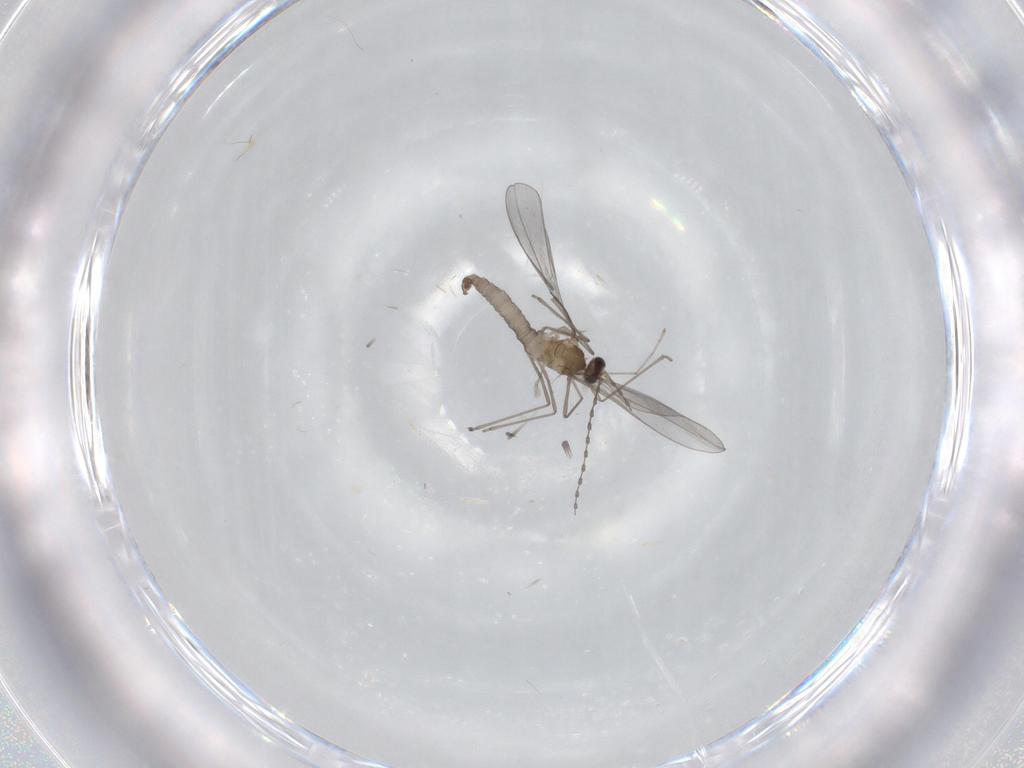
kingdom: Animalia
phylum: Arthropoda
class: Insecta
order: Diptera
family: Cecidomyiidae
